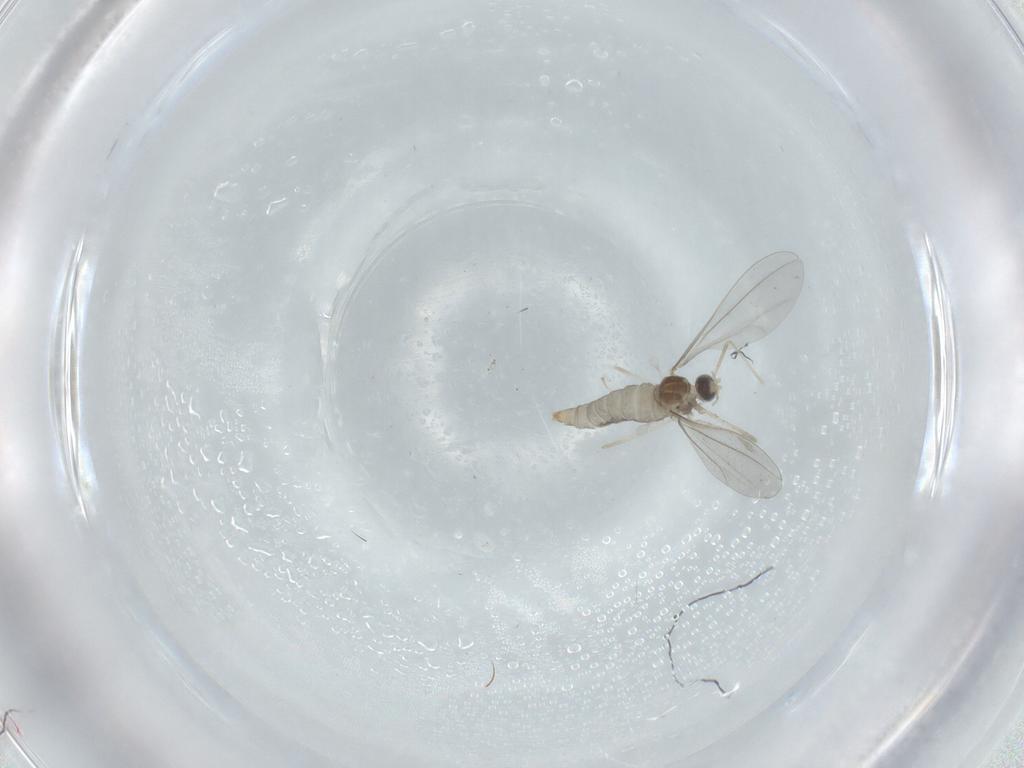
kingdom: Animalia
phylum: Arthropoda
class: Insecta
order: Diptera
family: Cecidomyiidae
